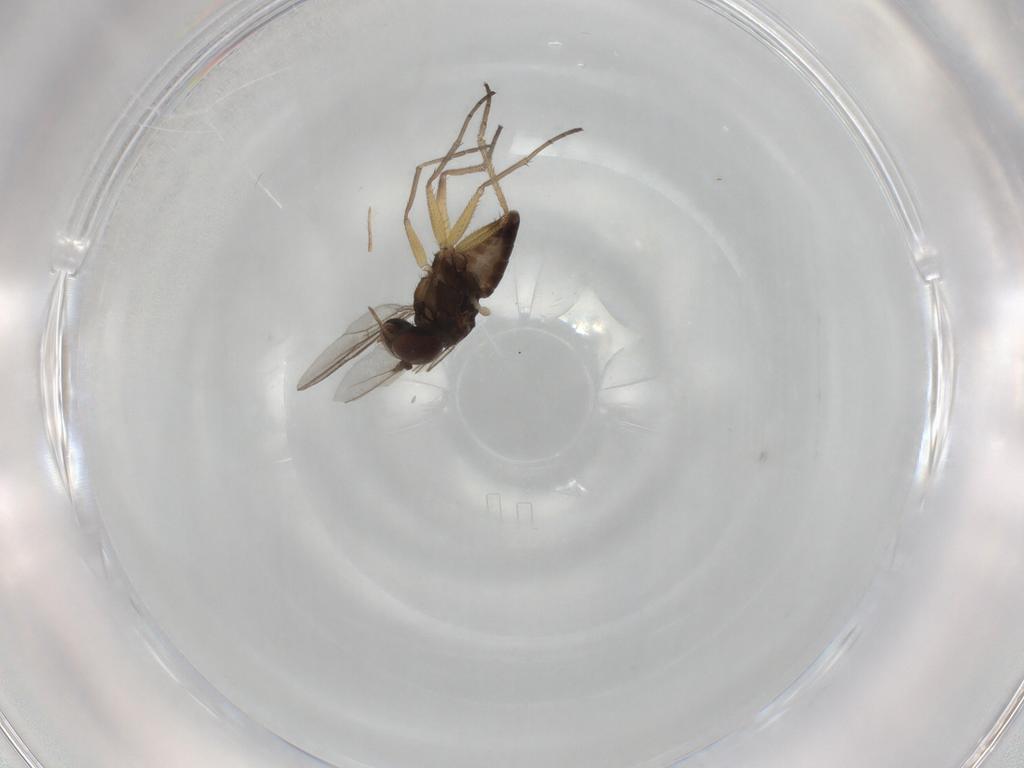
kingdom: Animalia
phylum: Arthropoda
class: Insecta
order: Diptera
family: Dolichopodidae
